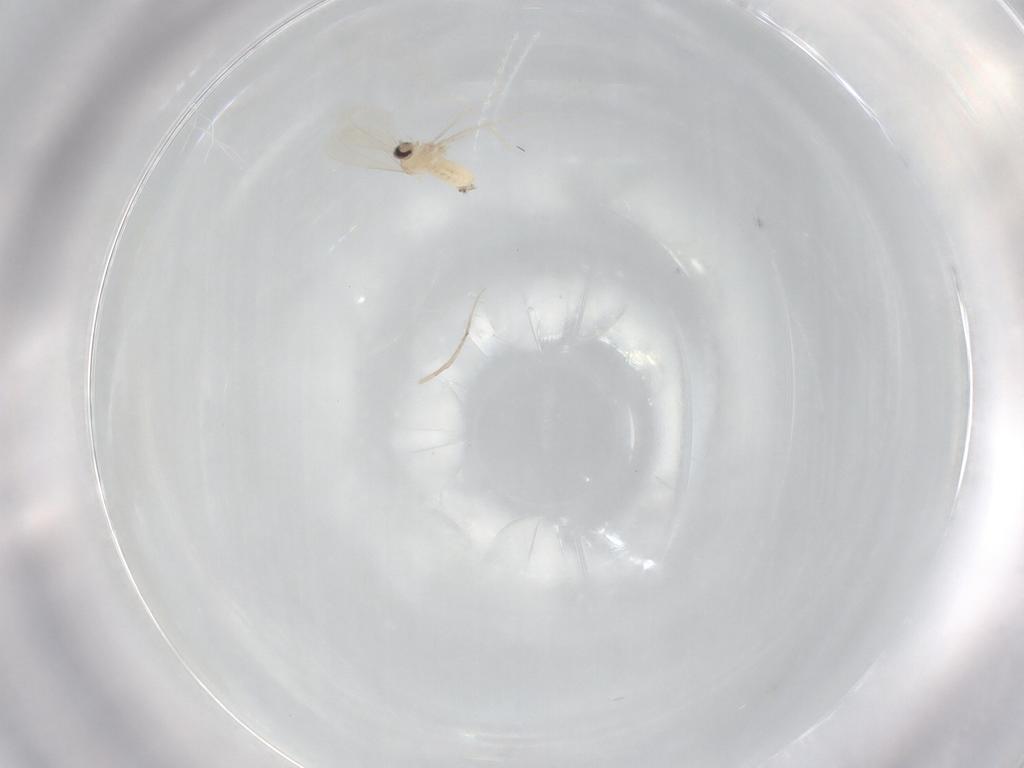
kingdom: Animalia
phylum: Arthropoda
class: Insecta
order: Diptera
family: Cecidomyiidae
